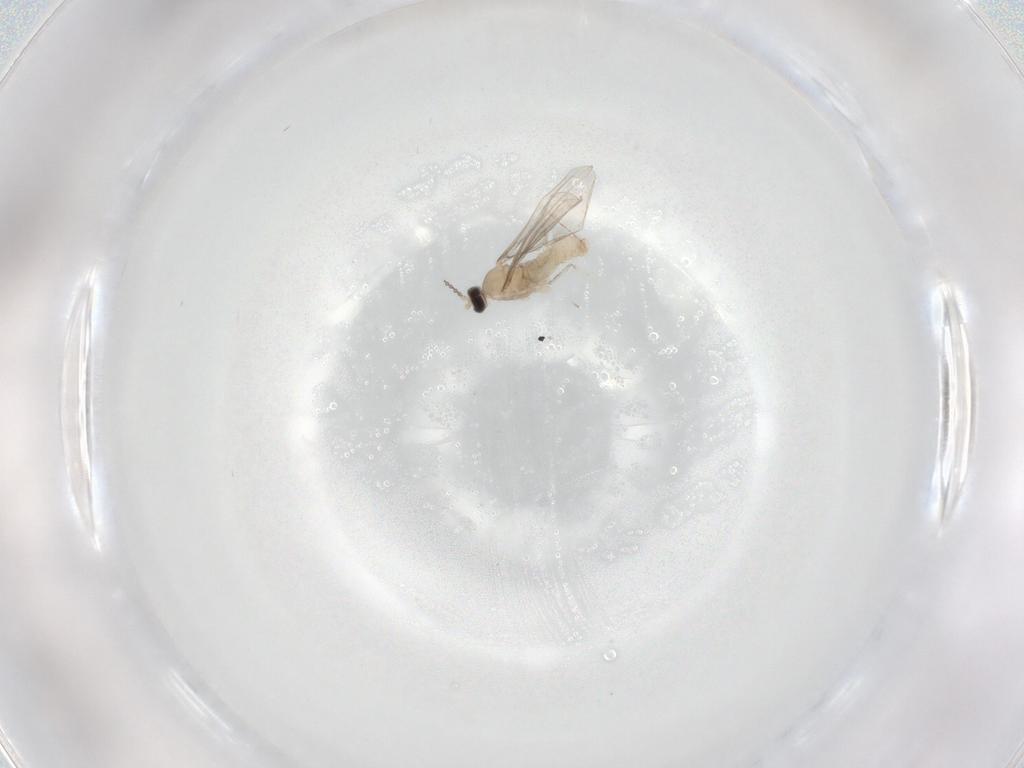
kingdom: Animalia
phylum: Arthropoda
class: Insecta
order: Diptera
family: Cecidomyiidae
